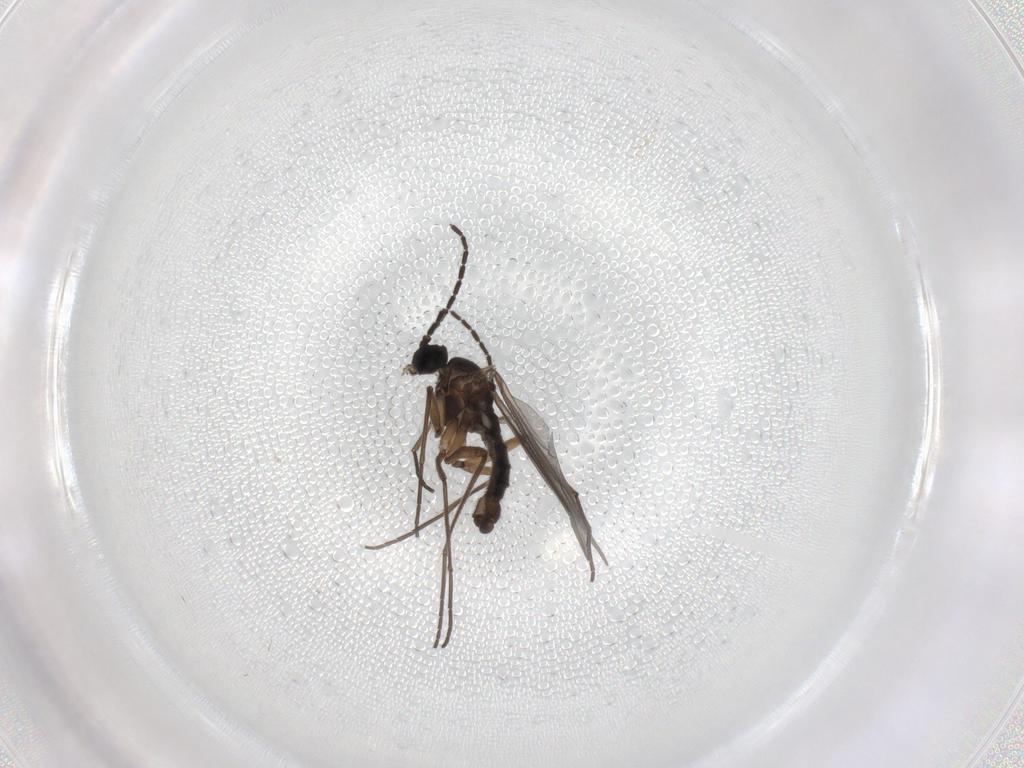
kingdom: Animalia
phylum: Arthropoda
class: Insecta
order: Diptera
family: Sciaridae
